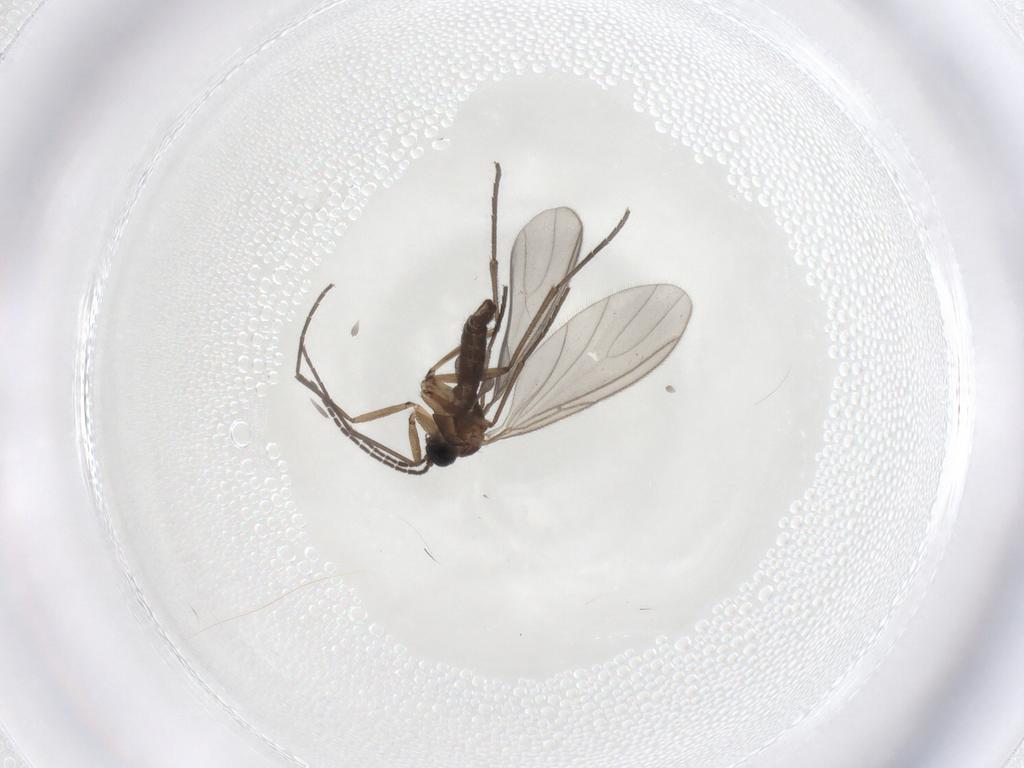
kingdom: Animalia
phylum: Arthropoda
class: Insecta
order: Diptera
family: Sciaridae
